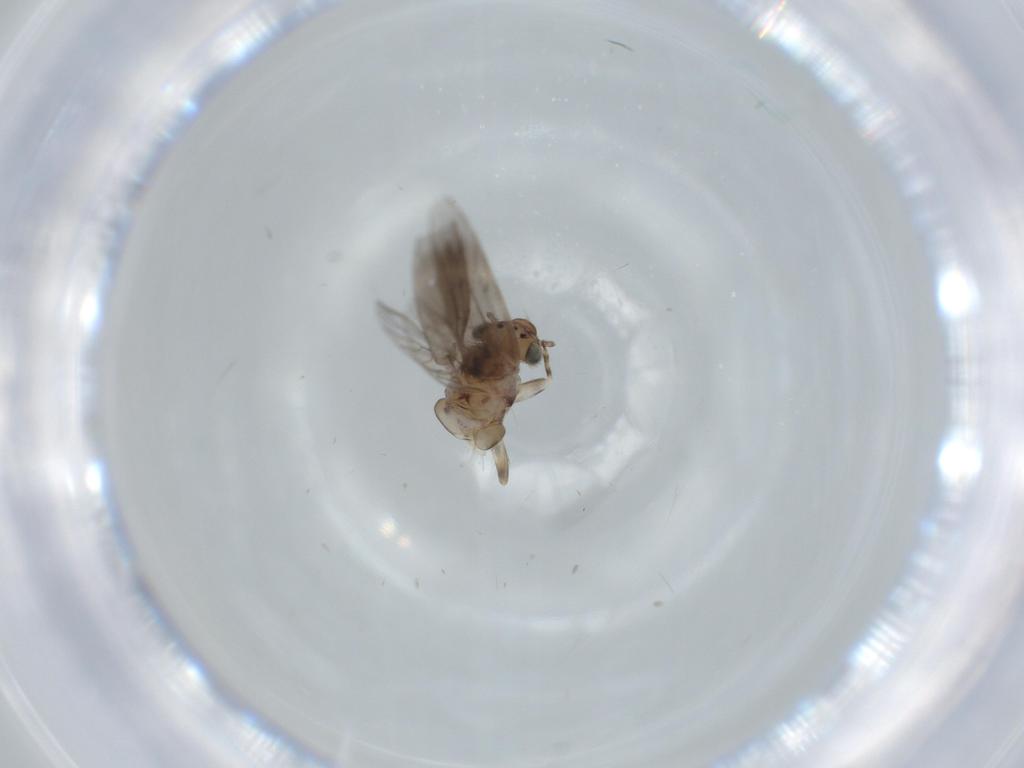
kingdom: Animalia
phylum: Arthropoda
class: Insecta
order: Psocodea
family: Lepidopsocidae
